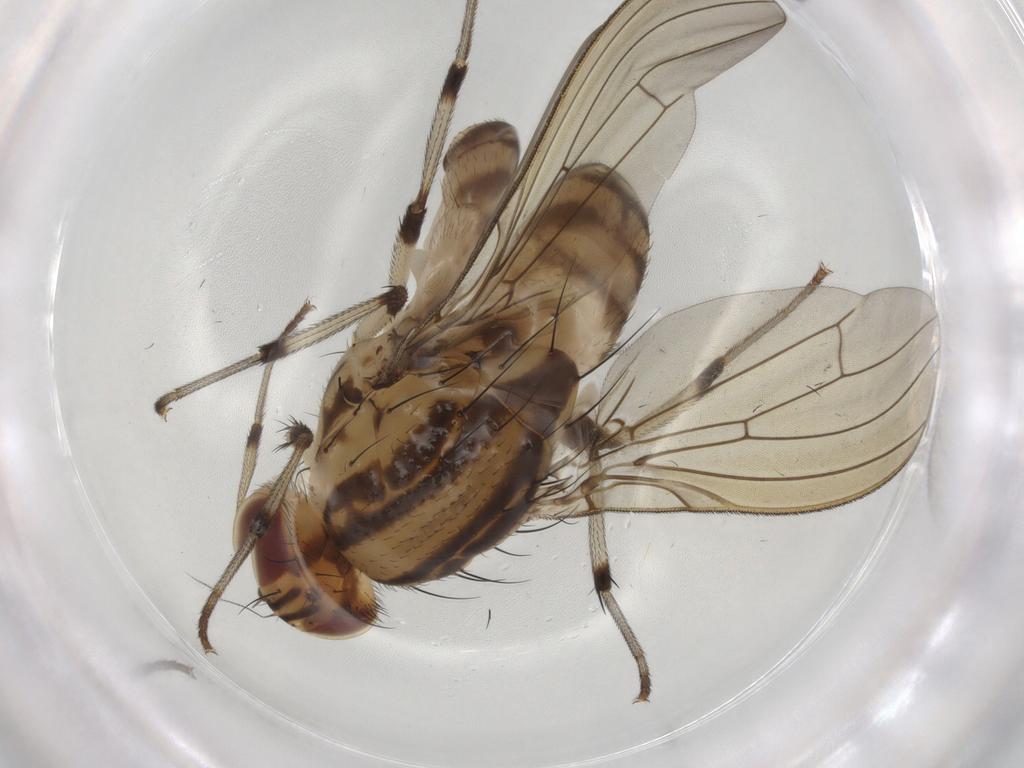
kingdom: Animalia
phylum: Arthropoda
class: Insecta
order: Diptera
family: Lauxaniidae
